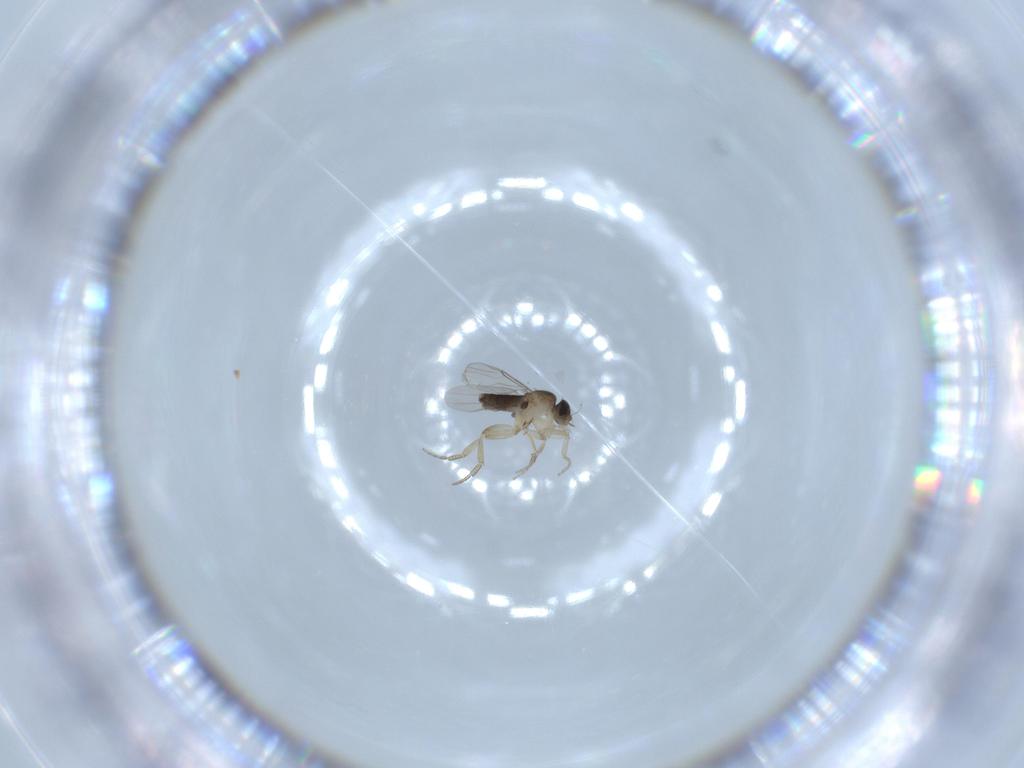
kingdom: Animalia
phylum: Arthropoda
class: Insecta
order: Diptera
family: Phoridae
